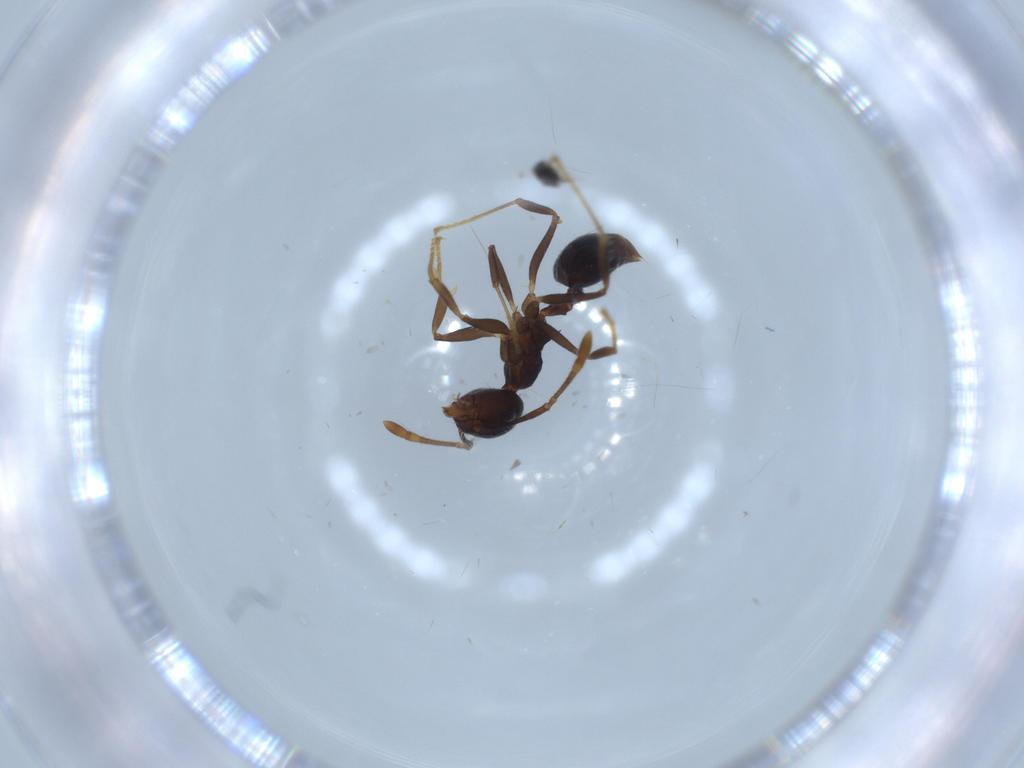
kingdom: Animalia
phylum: Arthropoda
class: Insecta
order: Hymenoptera
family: Formicidae
